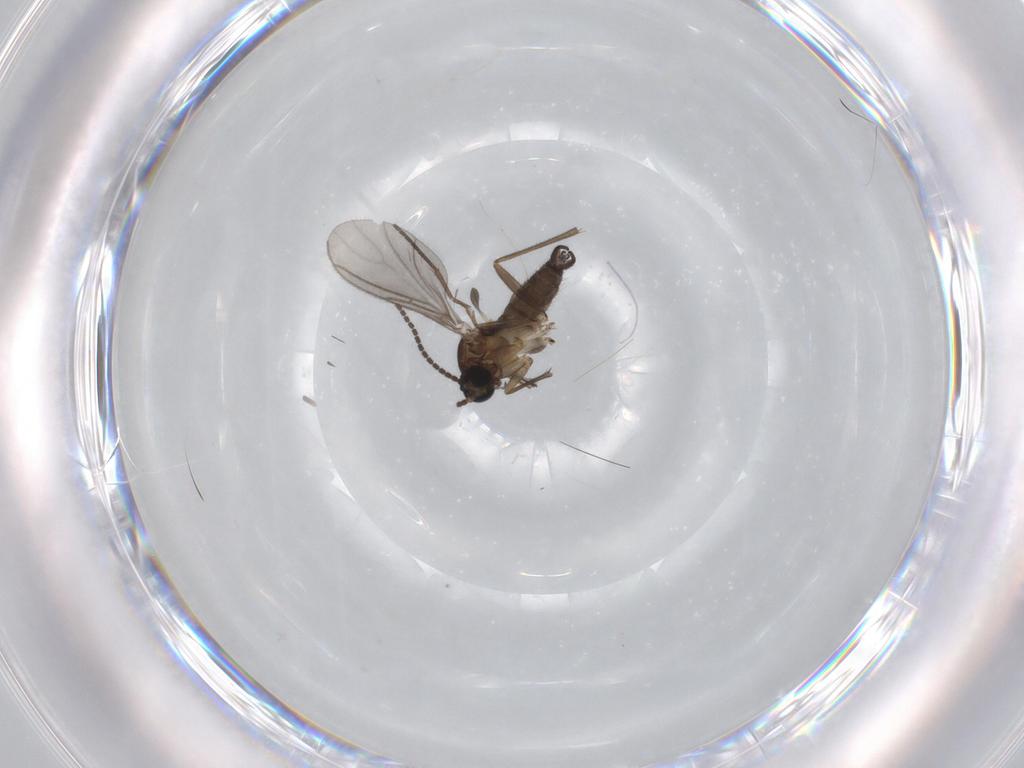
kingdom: Animalia
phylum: Arthropoda
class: Insecta
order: Diptera
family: Sciaridae
